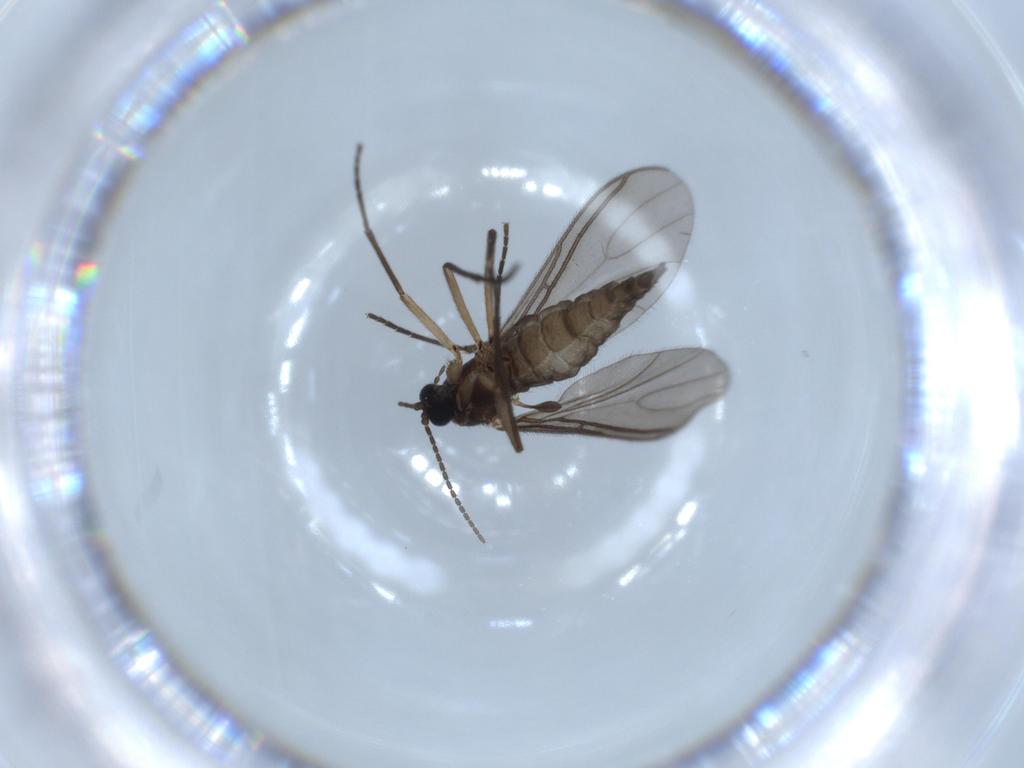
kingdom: Animalia
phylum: Arthropoda
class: Insecta
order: Diptera
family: Sciaridae
